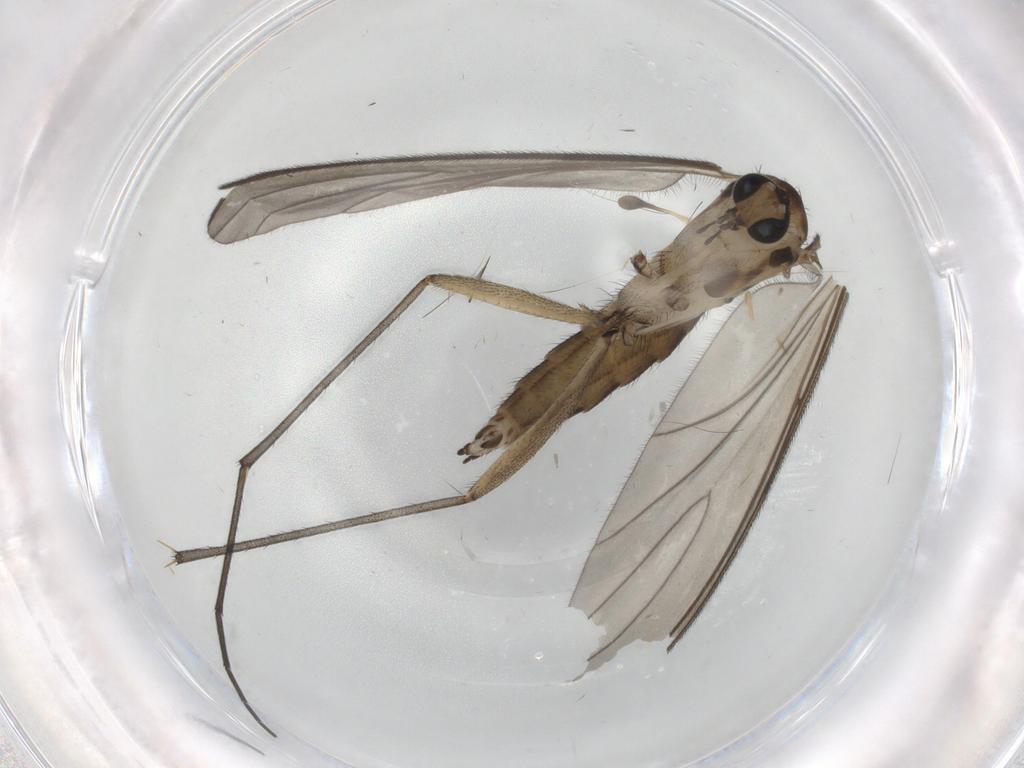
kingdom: Animalia
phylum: Arthropoda
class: Insecta
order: Diptera
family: Sciaridae
